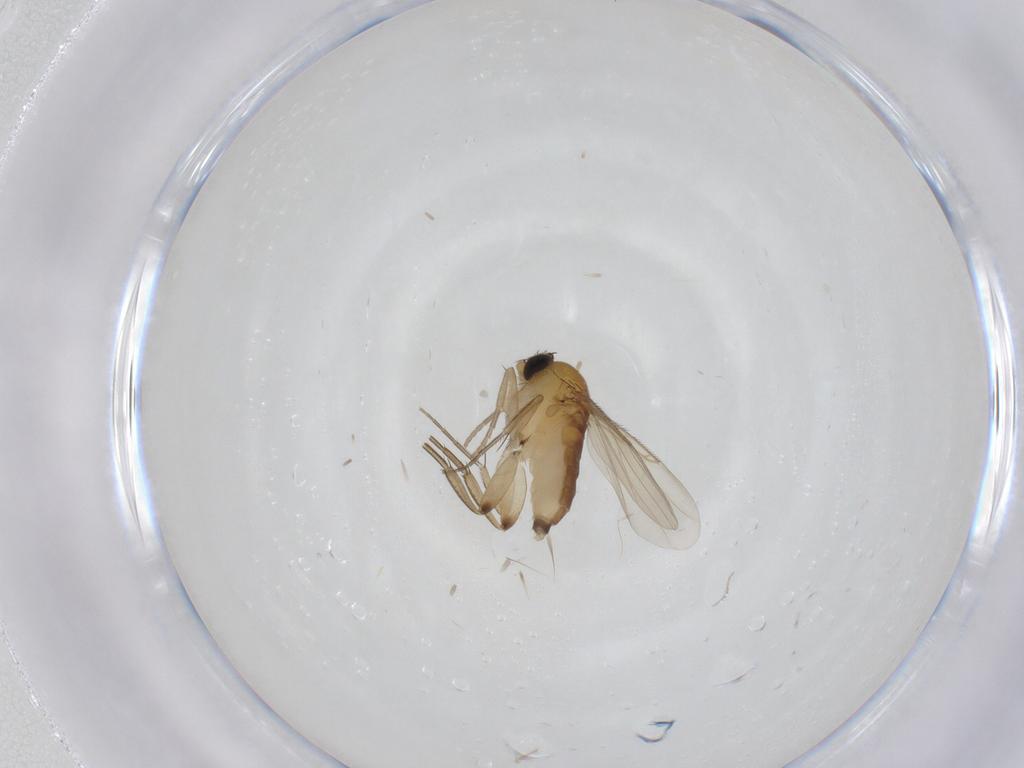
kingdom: Animalia
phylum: Arthropoda
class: Insecta
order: Diptera
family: Phoridae
